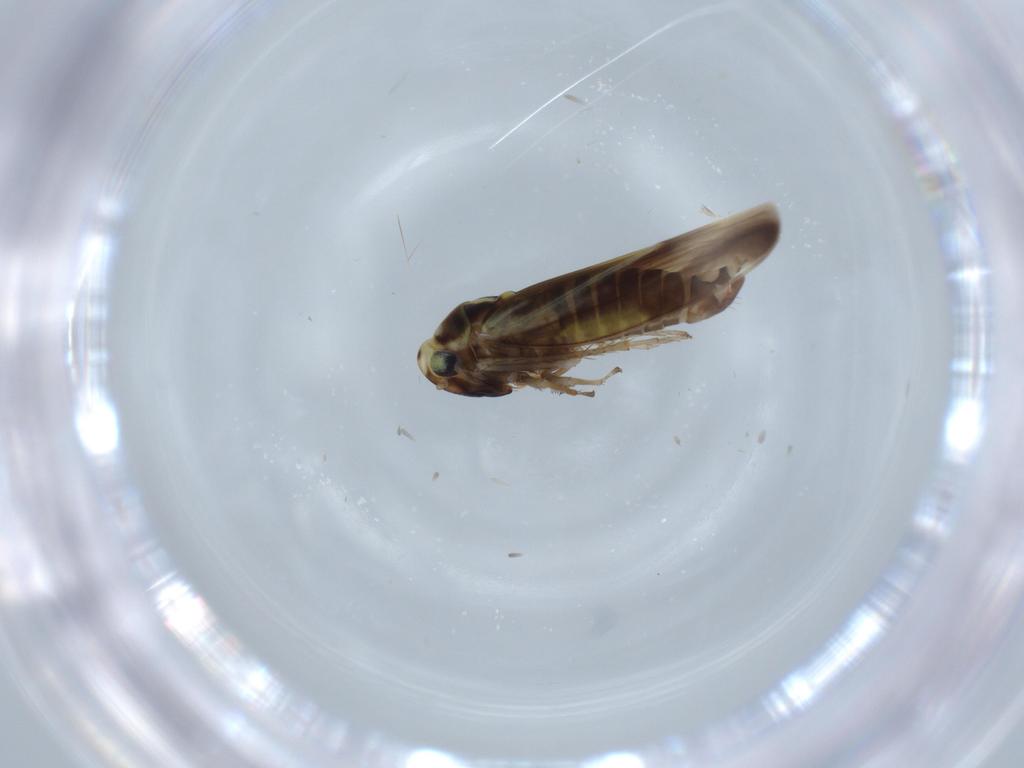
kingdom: Animalia
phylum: Arthropoda
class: Insecta
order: Hemiptera
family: Cicadellidae
